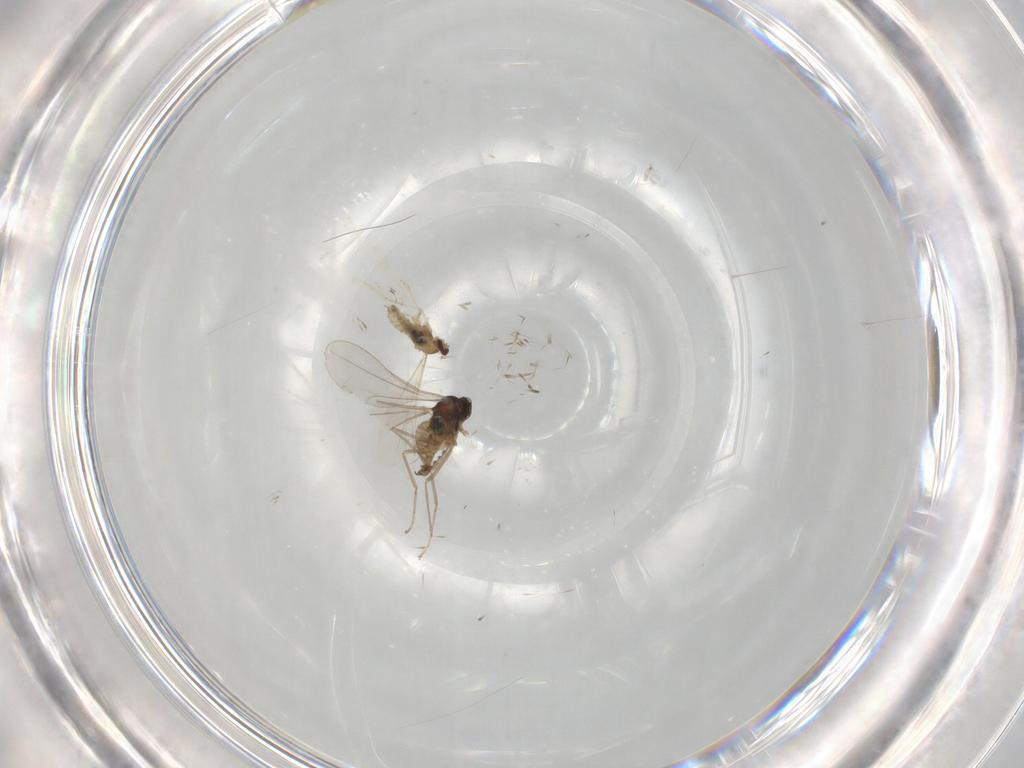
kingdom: Animalia
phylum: Arthropoda
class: Insecta
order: Diptera
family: Cecidomyiidae
